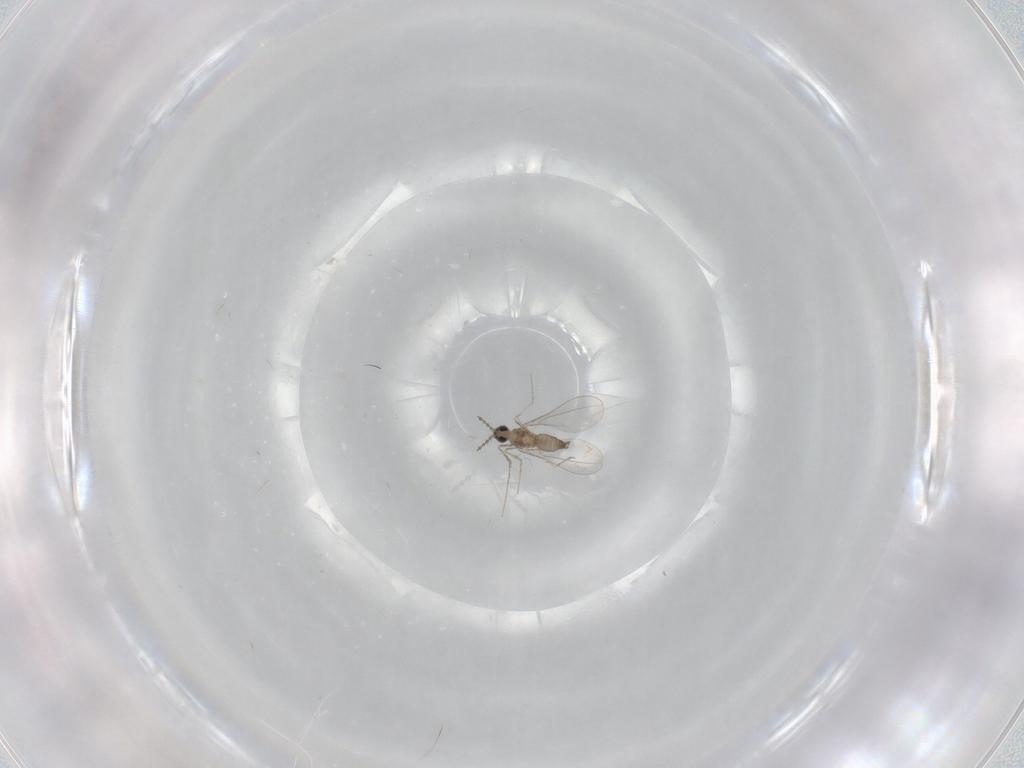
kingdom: Animalia
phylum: Arthropoda
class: Insecta
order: Diptera
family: Cecidomyiidae
